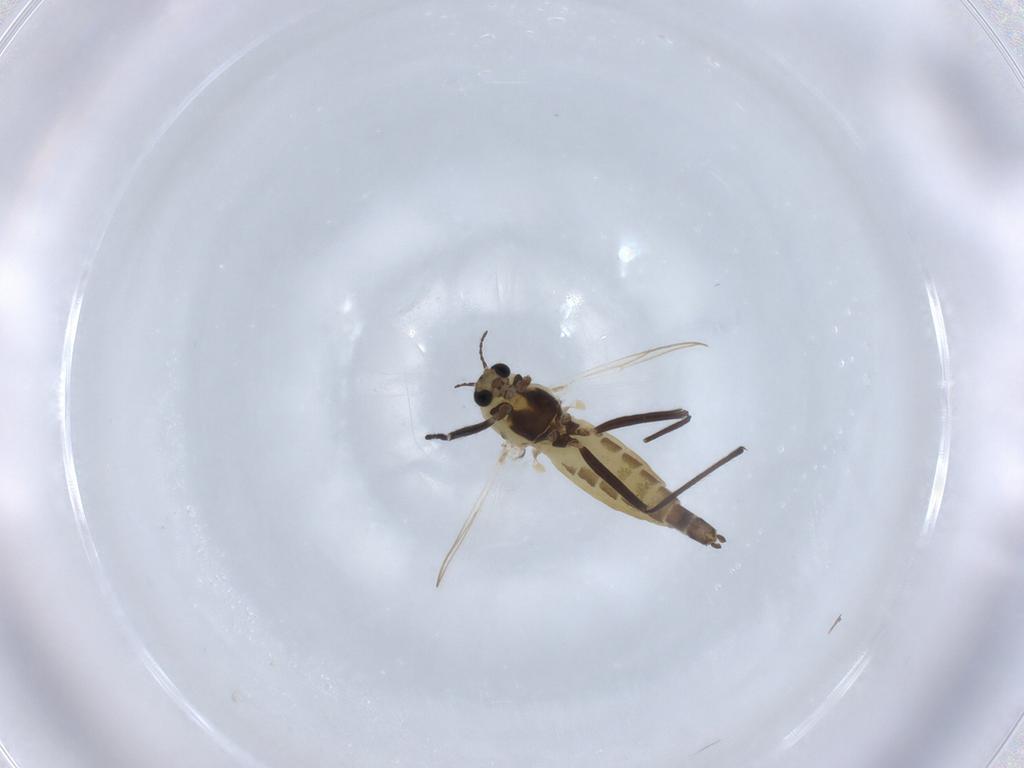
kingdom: Animalia
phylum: Arthropoda
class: Insecta
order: Diptera
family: Chironomidae
